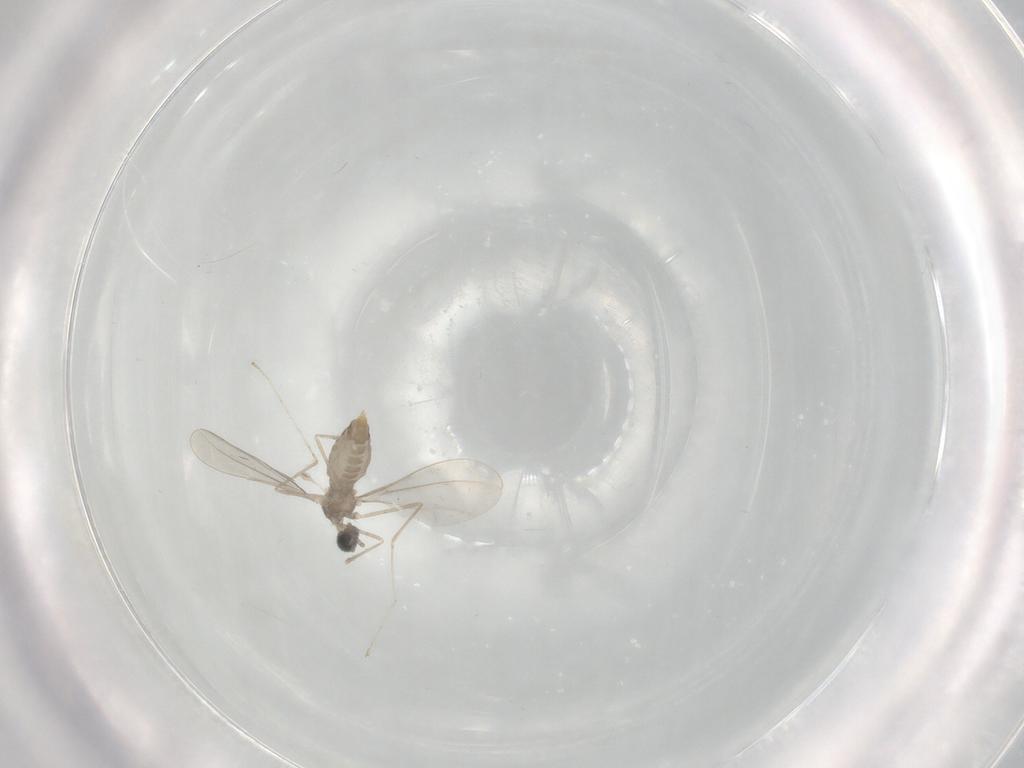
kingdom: Animalia
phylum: Arthropoda
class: Insecta
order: Diptera
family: Cecidomyiidae
